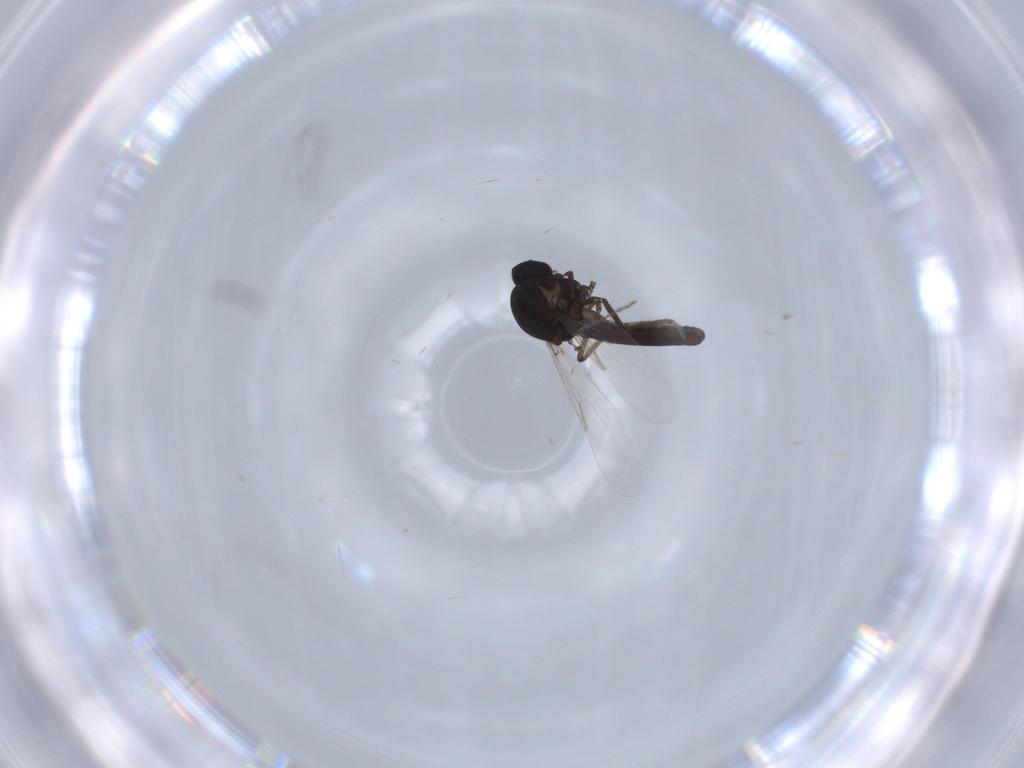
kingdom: Animalia
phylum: Arthropoda
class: Insecta
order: Diptera
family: Ceratopogonidae
